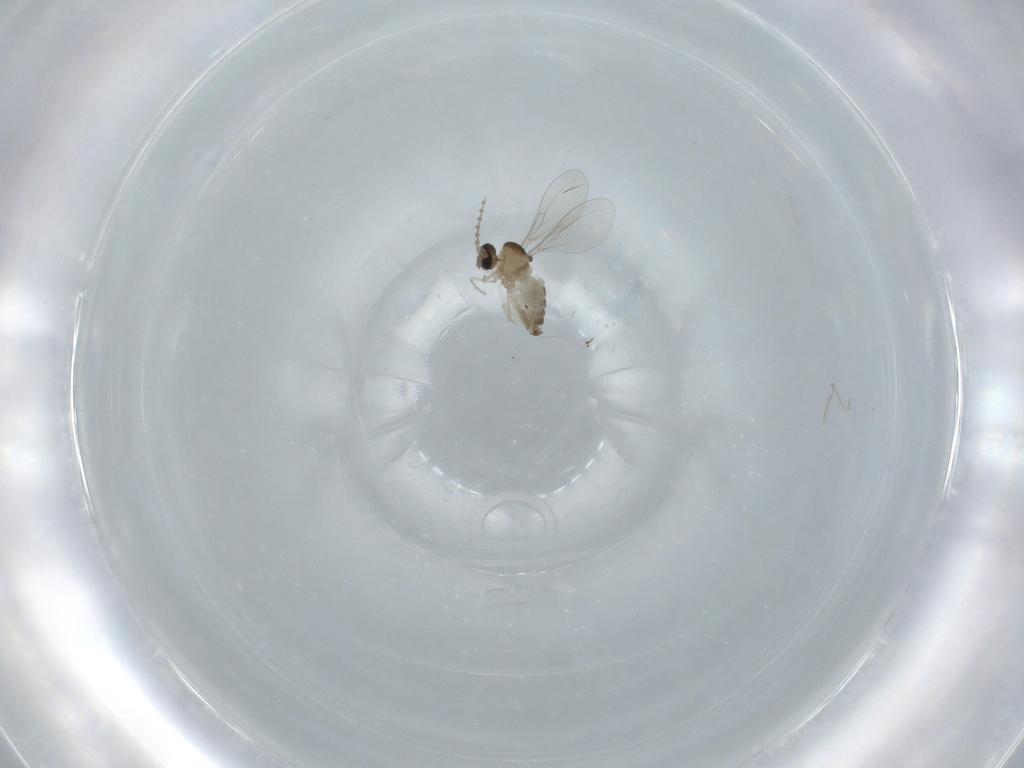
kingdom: Animalia
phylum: Arthropoda
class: Insecta
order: Diptera
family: Cecidomyiidae
